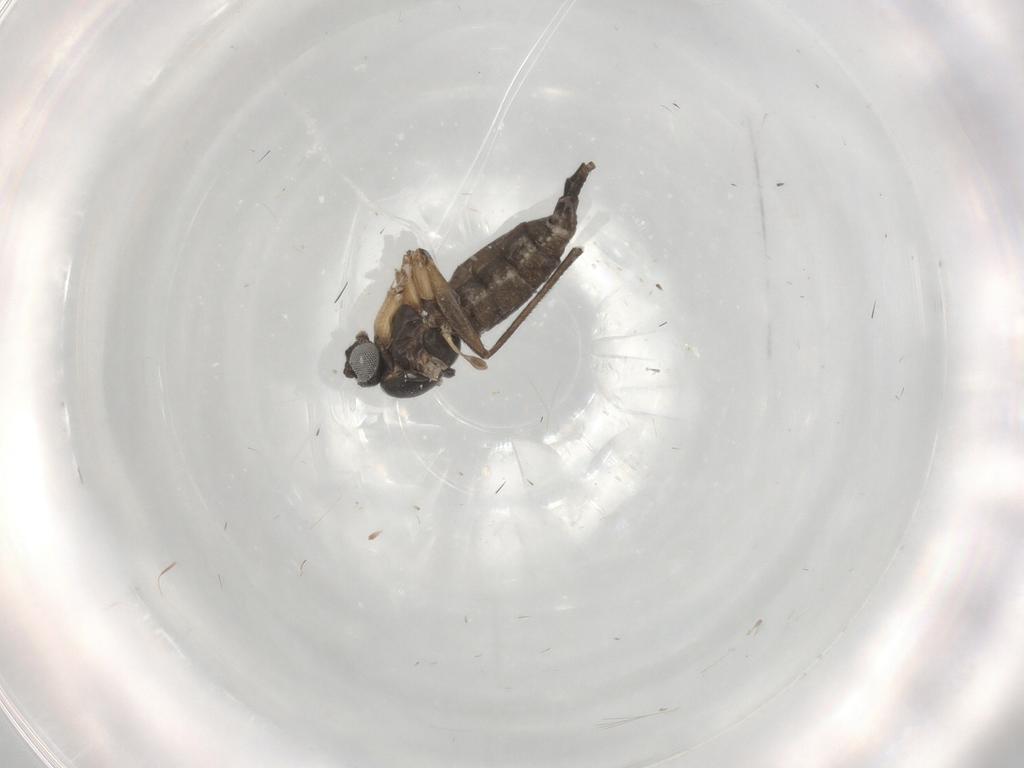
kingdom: Animalia
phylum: Arthropoda
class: Insecta
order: Diptera
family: Sciaridae
